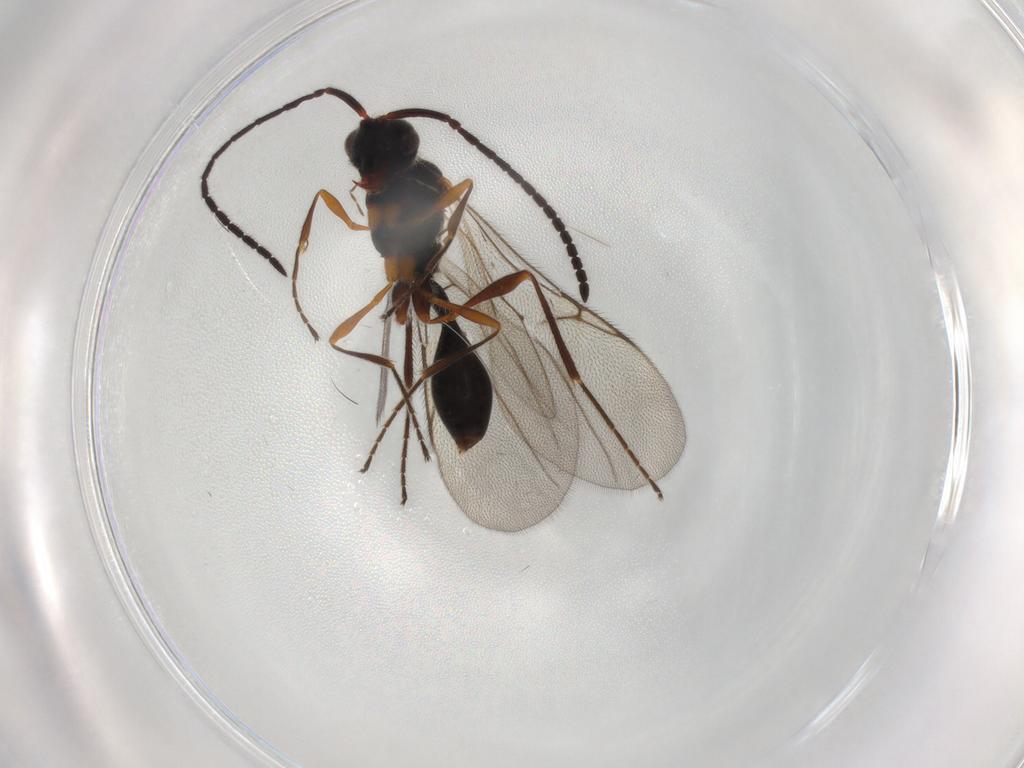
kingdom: Animalia
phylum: Arthropoda
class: Insecta
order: Hymenoptera
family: Diapriidae
